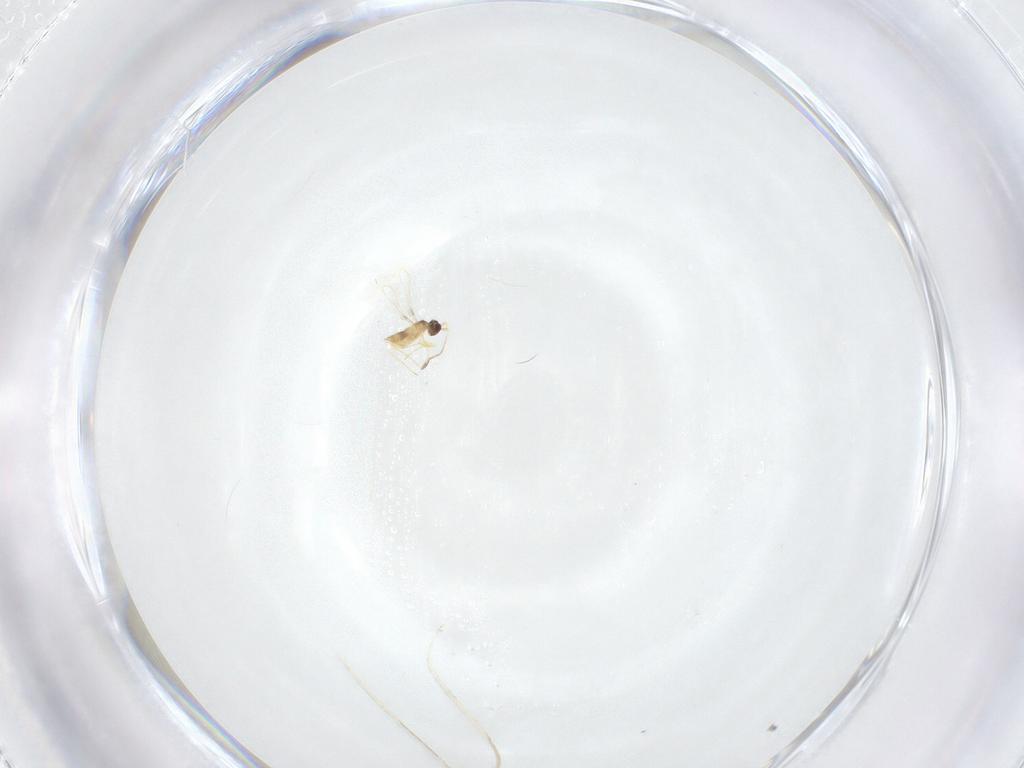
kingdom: Animalia
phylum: Arthropoda
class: Insecta
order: Hymenoptera
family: Mymaridae
